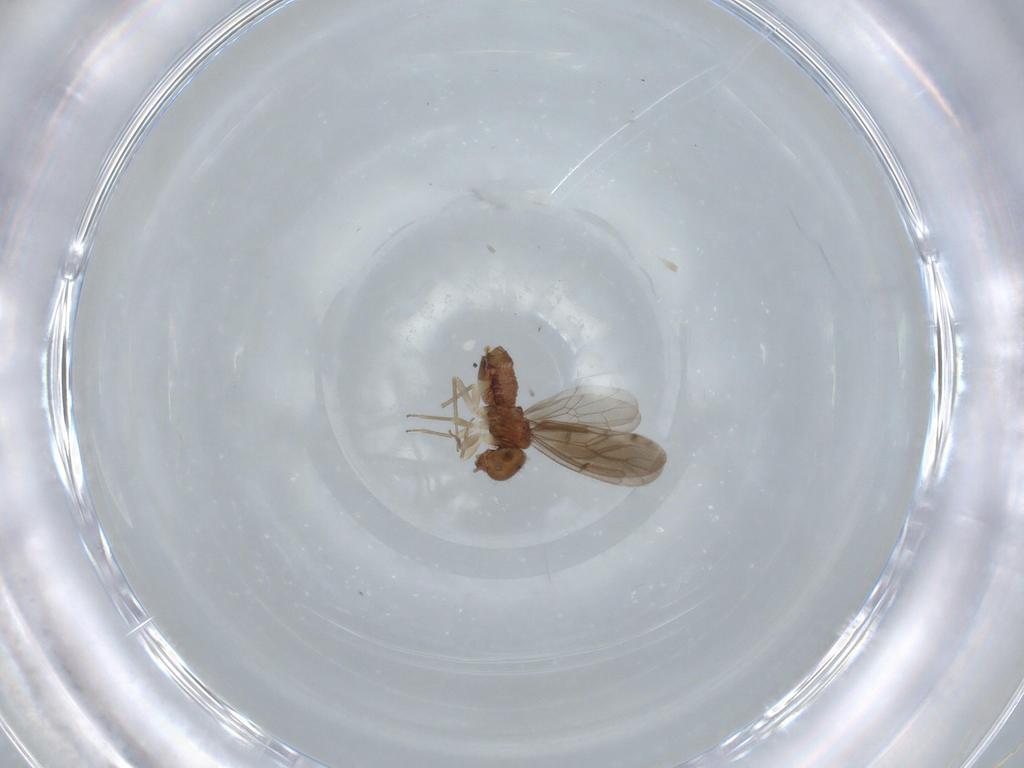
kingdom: Animalia
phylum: Arthropoda
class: Insecta
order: Psocodea
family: Ectopsocidae
